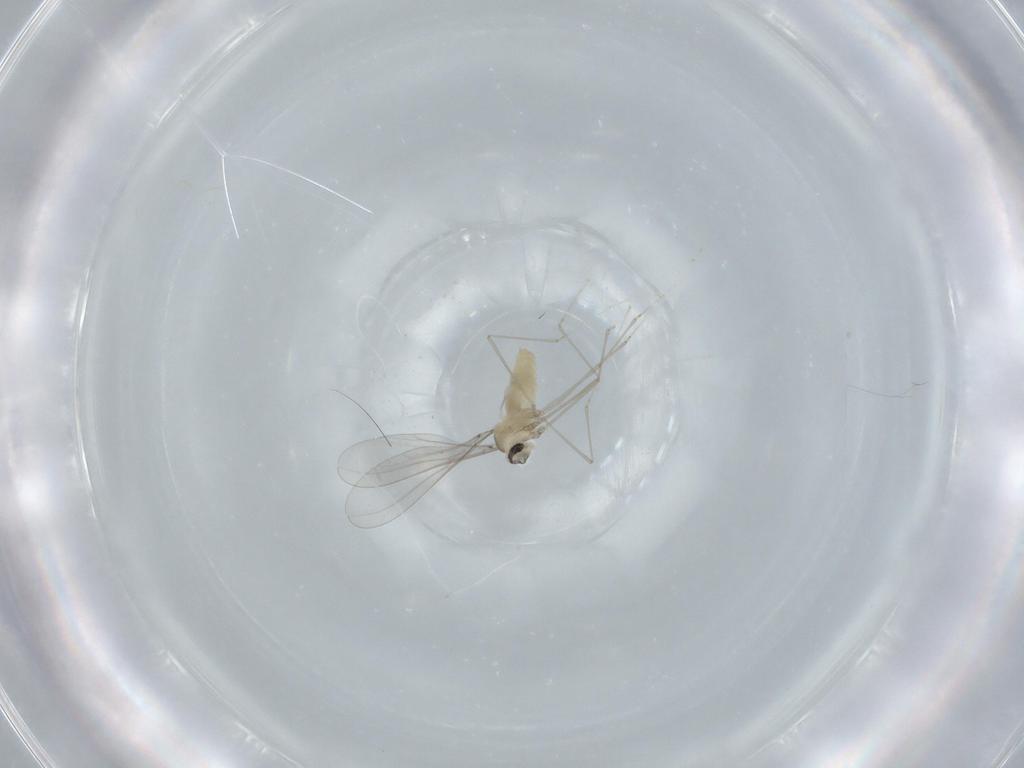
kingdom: Animalia
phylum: Arthropoda
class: Insecta
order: Diptera
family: Cecidomyiidae
